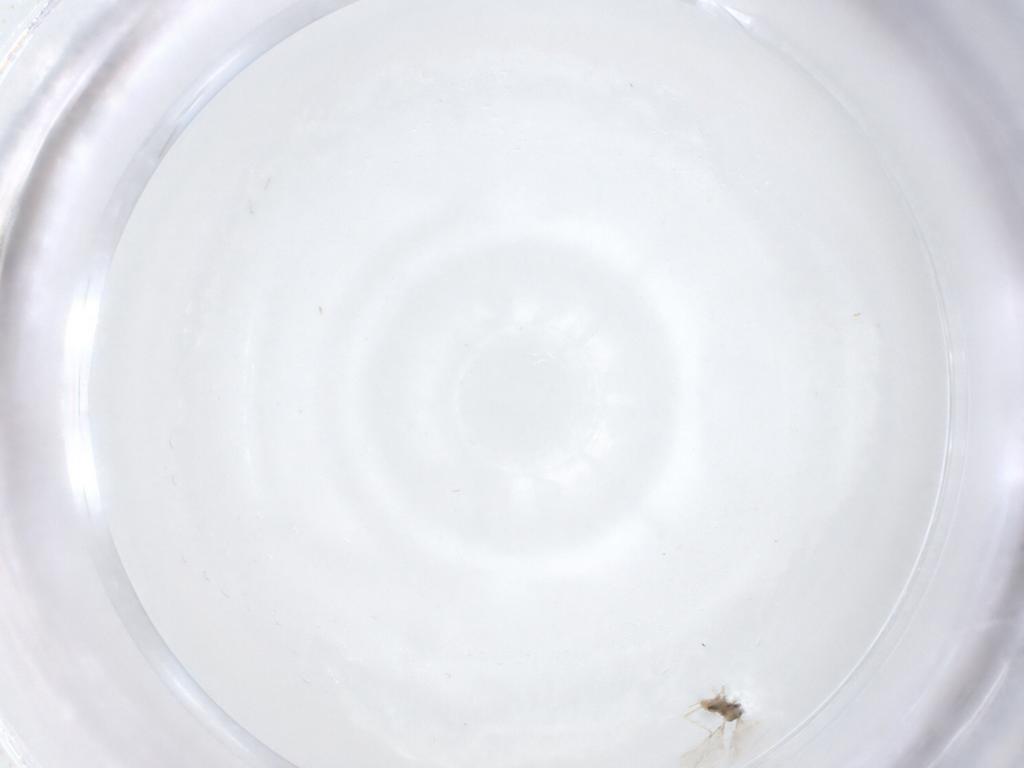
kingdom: Animalia
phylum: Arthropoda
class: Insecta
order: Diptera
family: Cecidomyiidae
